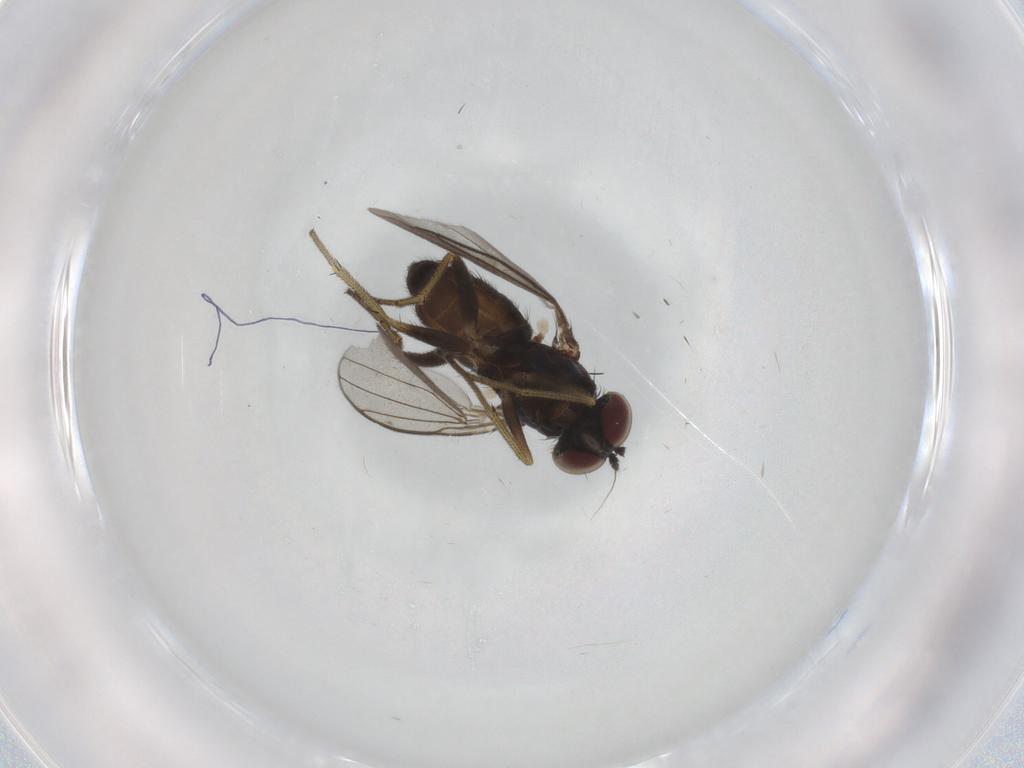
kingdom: Animalia
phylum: Arthropoda
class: Insecta
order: Diptera
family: Dolichopodidae
